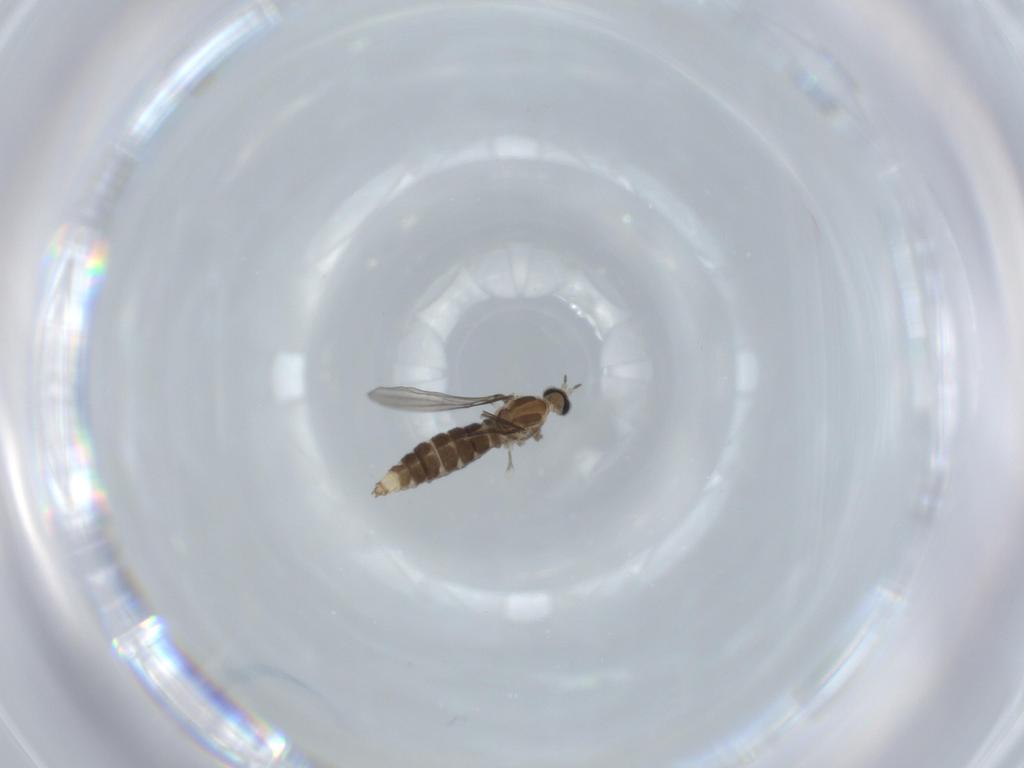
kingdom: Animalia
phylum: Arthropoda
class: Insecta
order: Diptera
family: Cecidomyiidae
